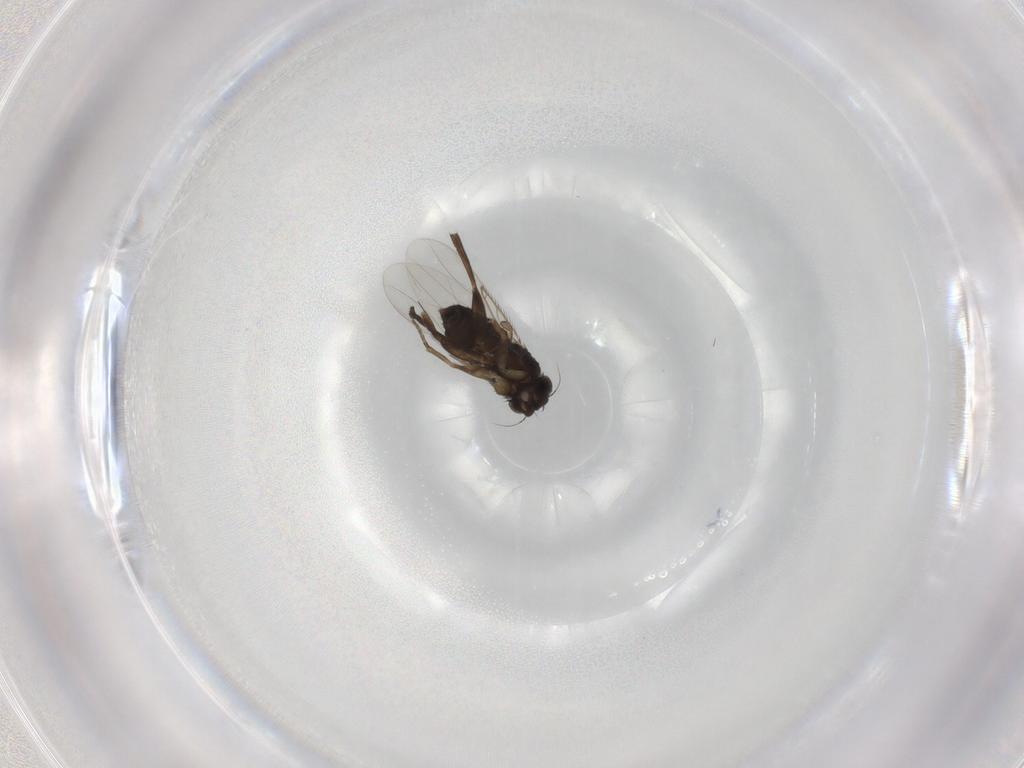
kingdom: Animalia
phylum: Arthropoda
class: Insecta
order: Diptera
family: Phoridae
